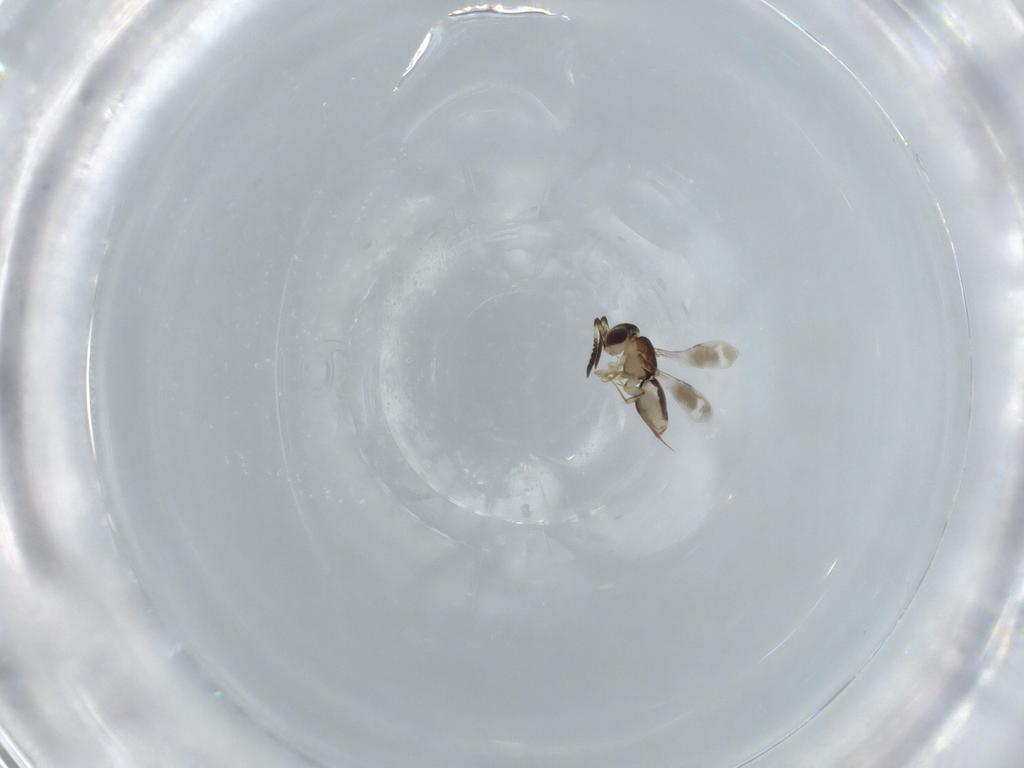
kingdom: Animalia
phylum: Arthropoda
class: Insecta
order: Hymenoptera
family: Scelionidae
